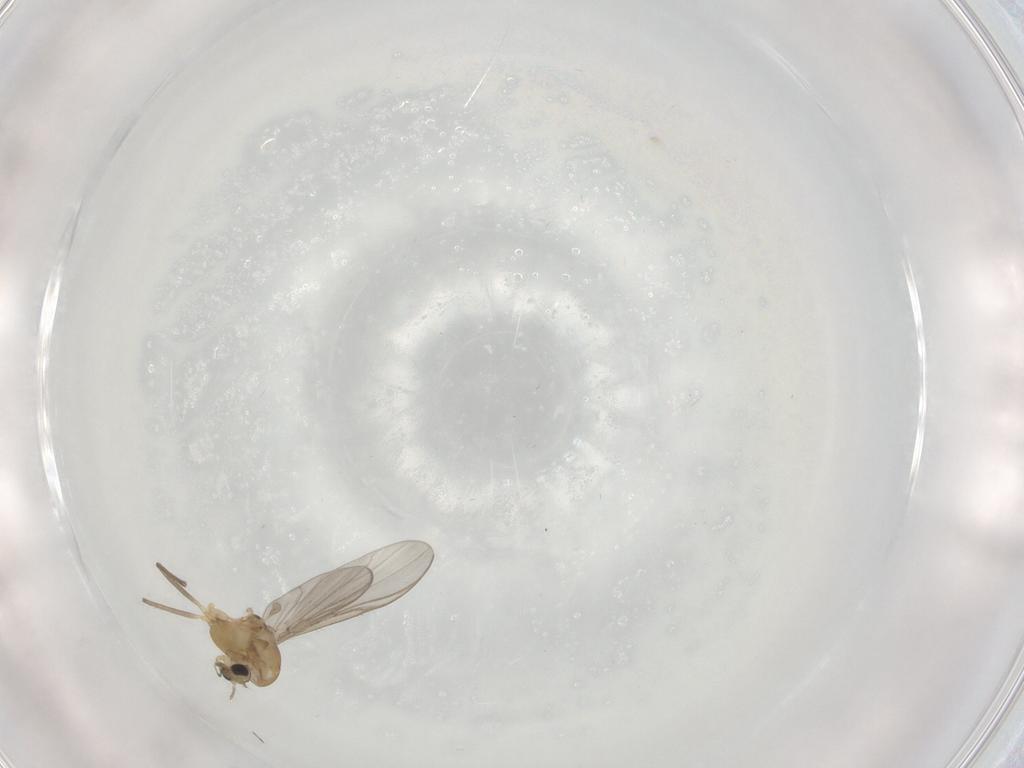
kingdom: Animalia
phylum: Arthropoda
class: Insecta
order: Diptera
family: Chironomidae
